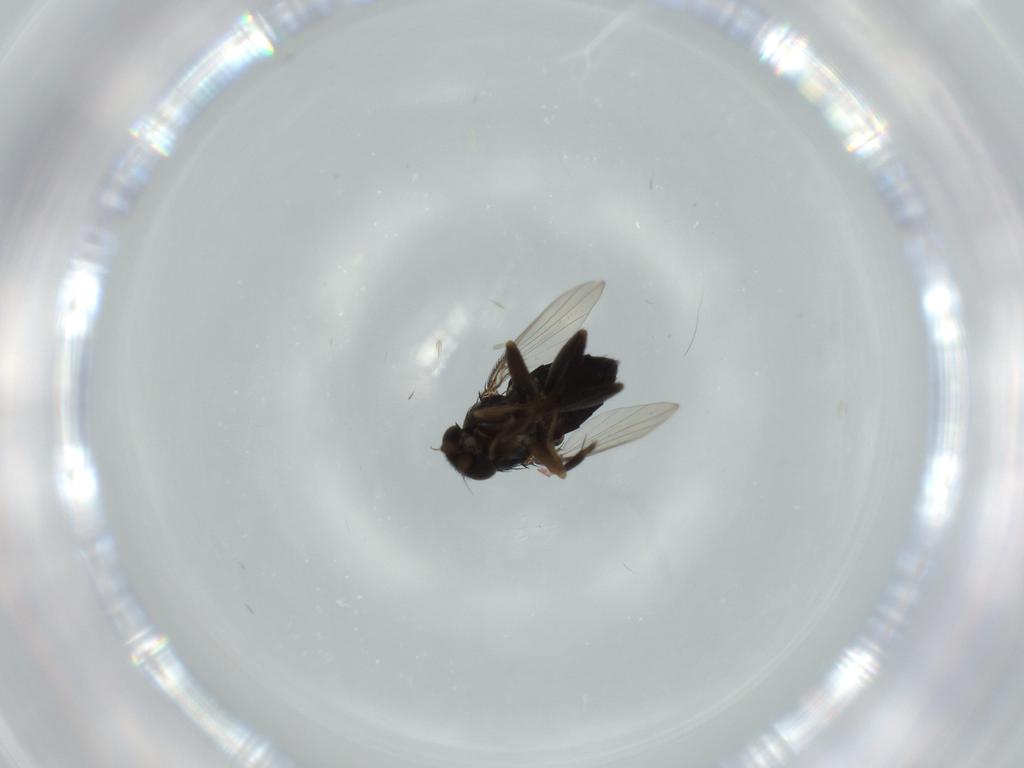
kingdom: Animalia
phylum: Arthropoda
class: Insecta
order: Diptera
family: Phoridae
